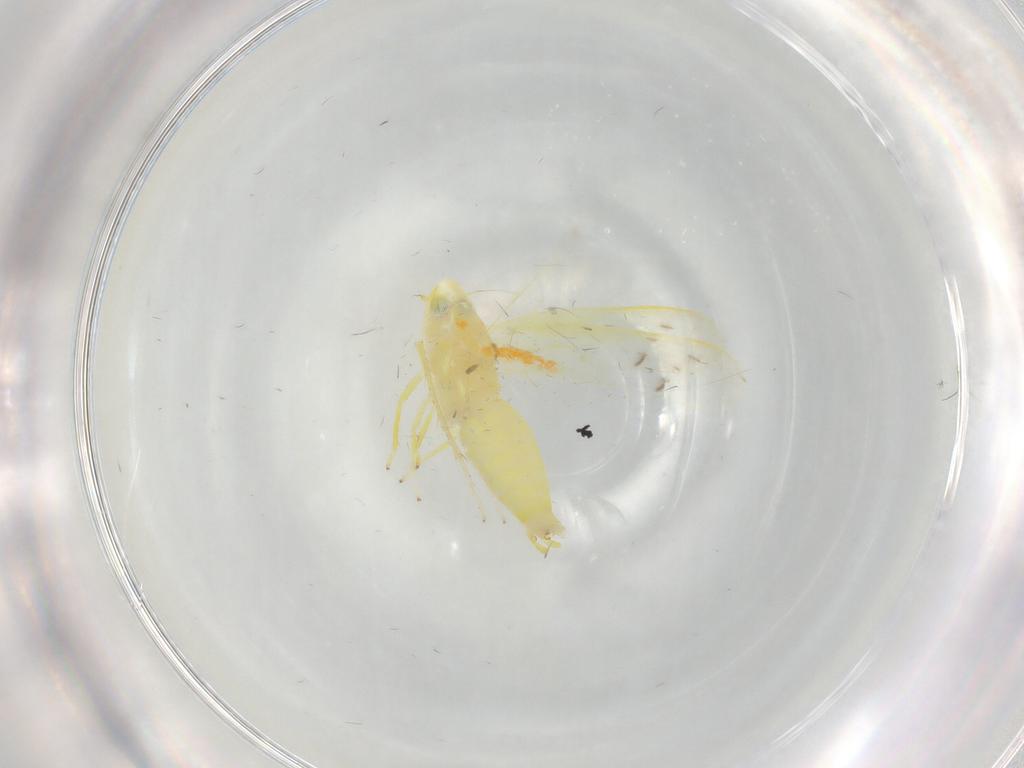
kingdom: Animalia
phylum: Arthropoda
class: Insecta
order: Hemiptera
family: Cicadellidae
